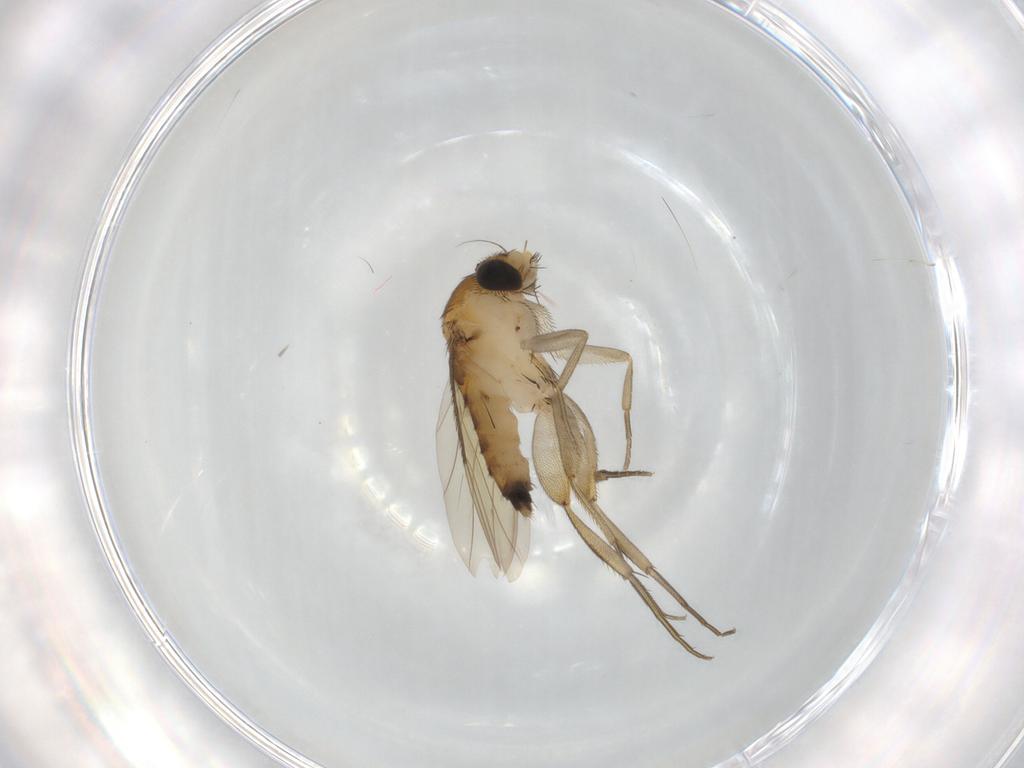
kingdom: Animalia
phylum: Arthropoda
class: Insecta
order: Diptera
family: Phoridae
